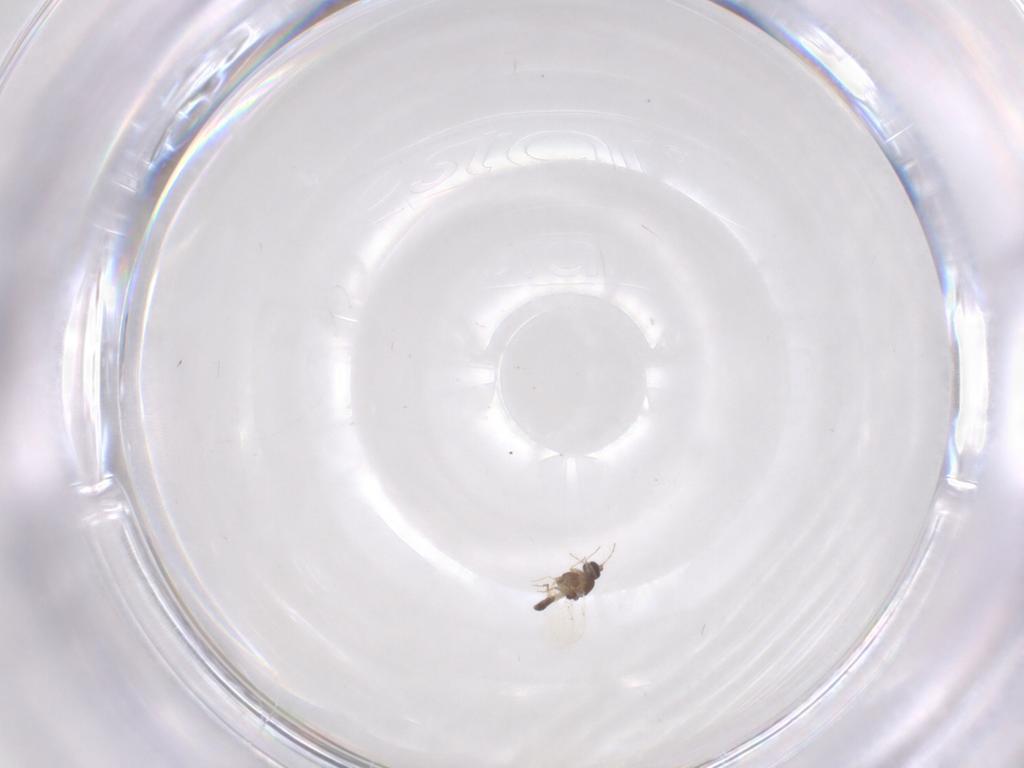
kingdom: Animalia
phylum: Arthropoda
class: Insecta
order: Diptera
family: Ceratopogonidae
